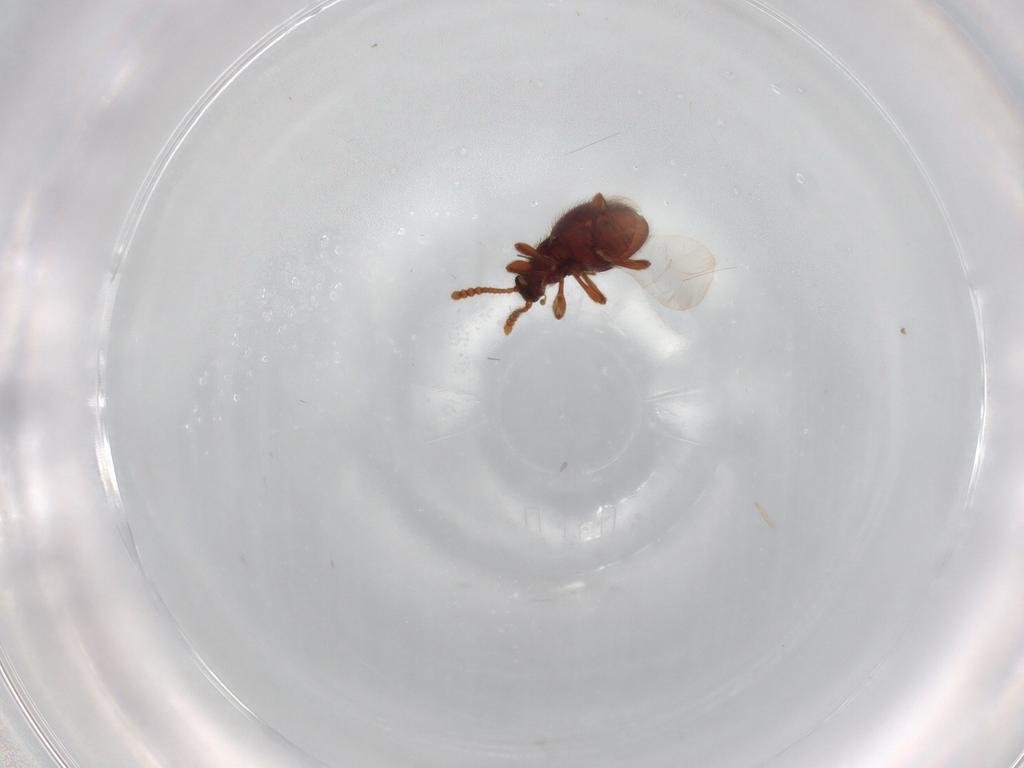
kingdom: Animalia
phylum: Arthropoda
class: Insecta
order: Coleoptera
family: Staphylinidae
